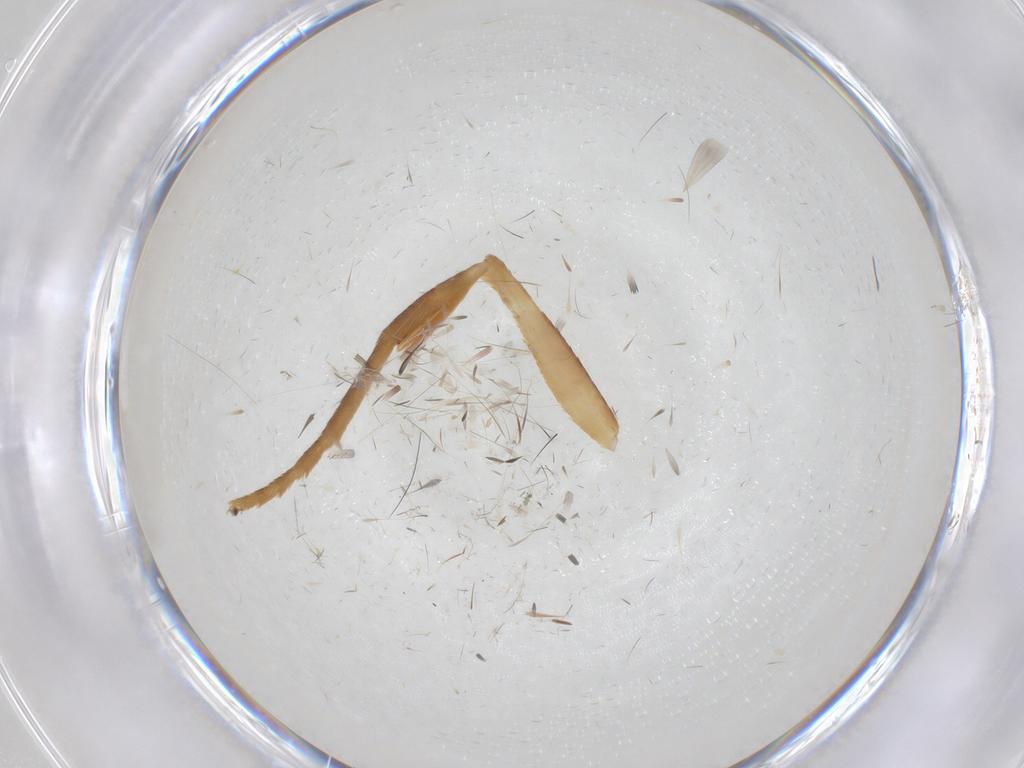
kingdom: Animalia
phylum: Arthropoda
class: Insecta
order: Lepidoptera
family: Geometridae
